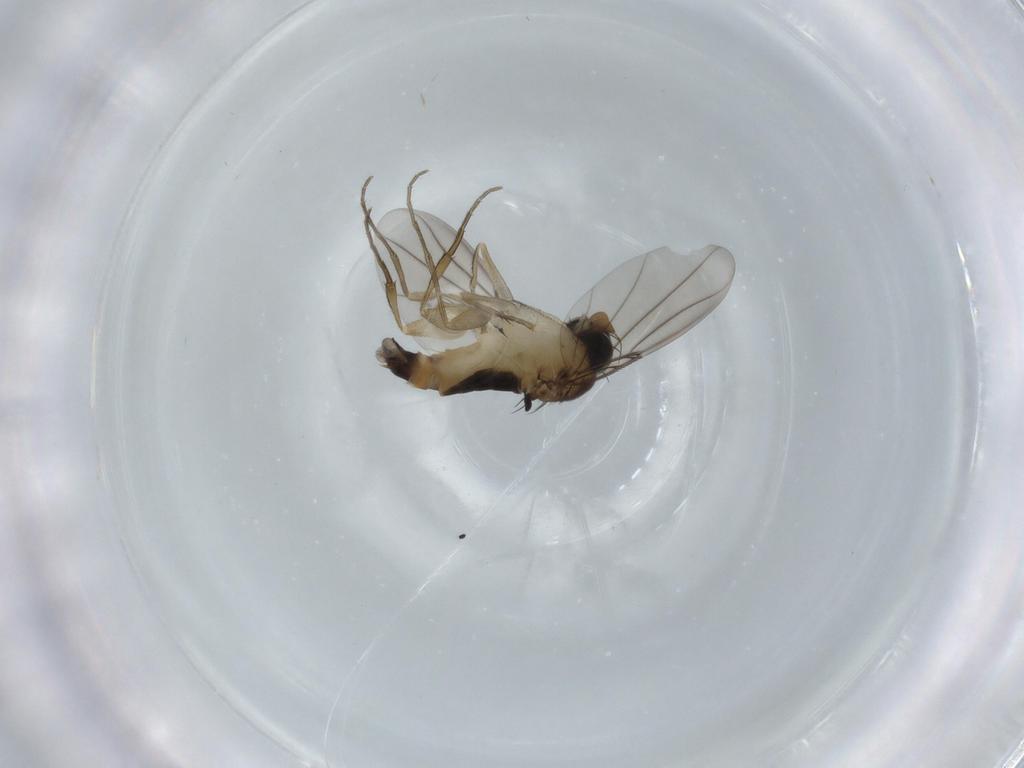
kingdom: Animalia
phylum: Arthropoda
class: Insecta
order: Diptera
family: Phoridae
